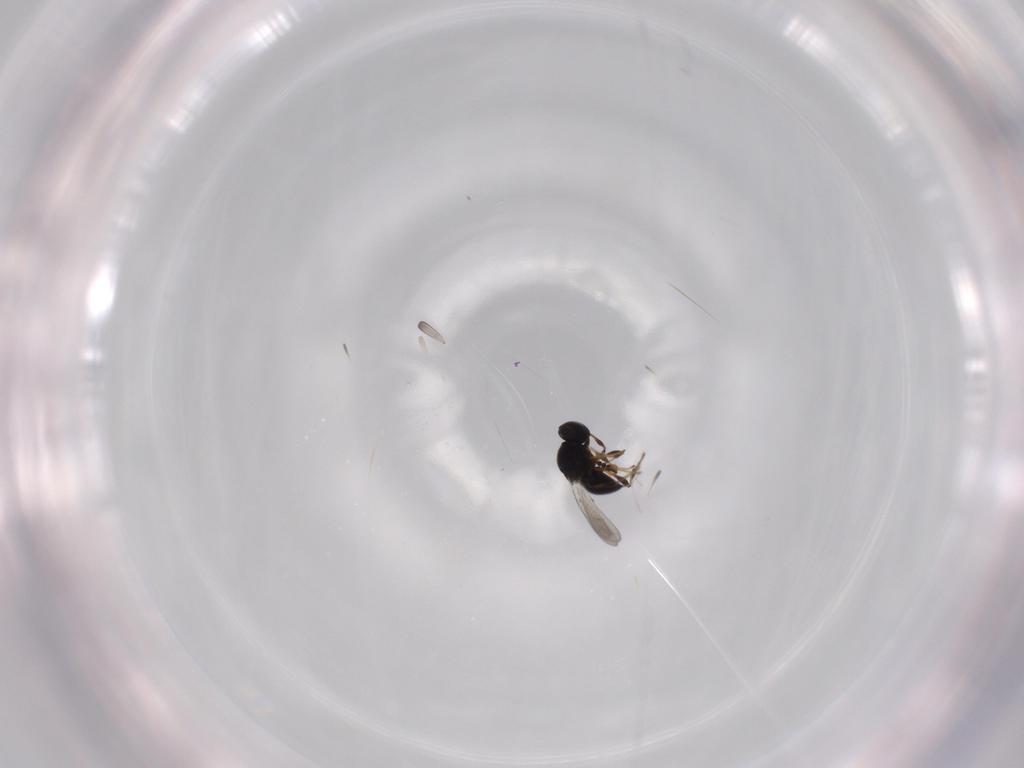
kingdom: Animalia
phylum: Arthropoda
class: Insecta
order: Hymenoptera
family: Platygastridae
